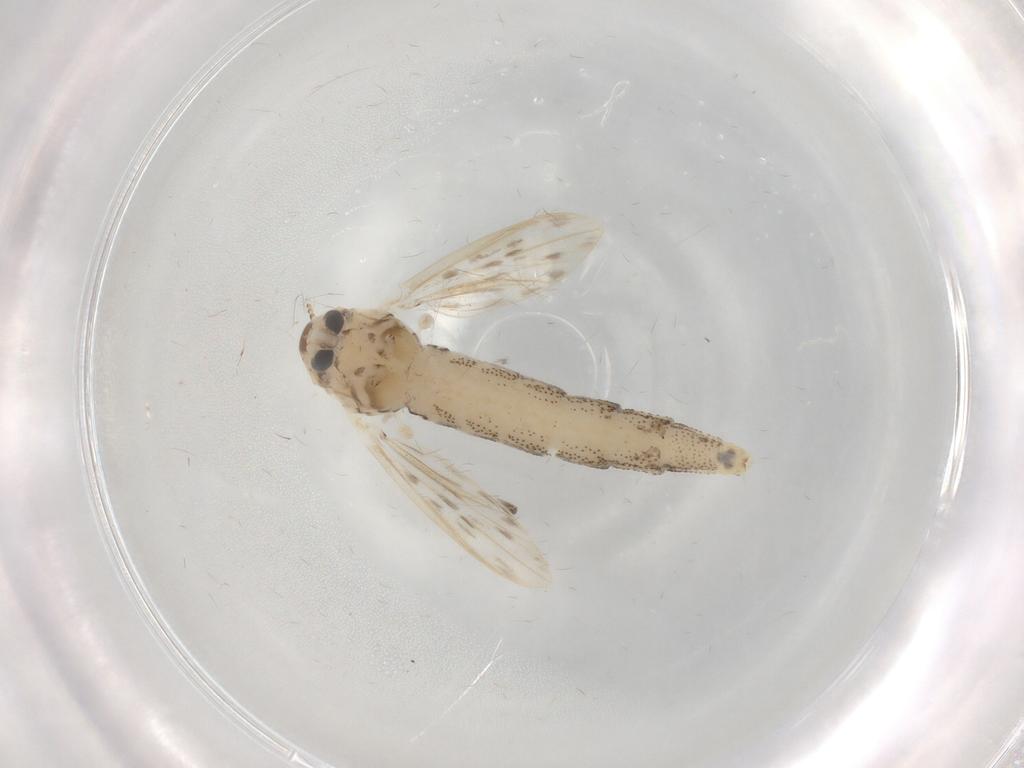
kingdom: Animalia
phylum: Arthropoda
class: Insecta
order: Diptera
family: Chaoboridae
